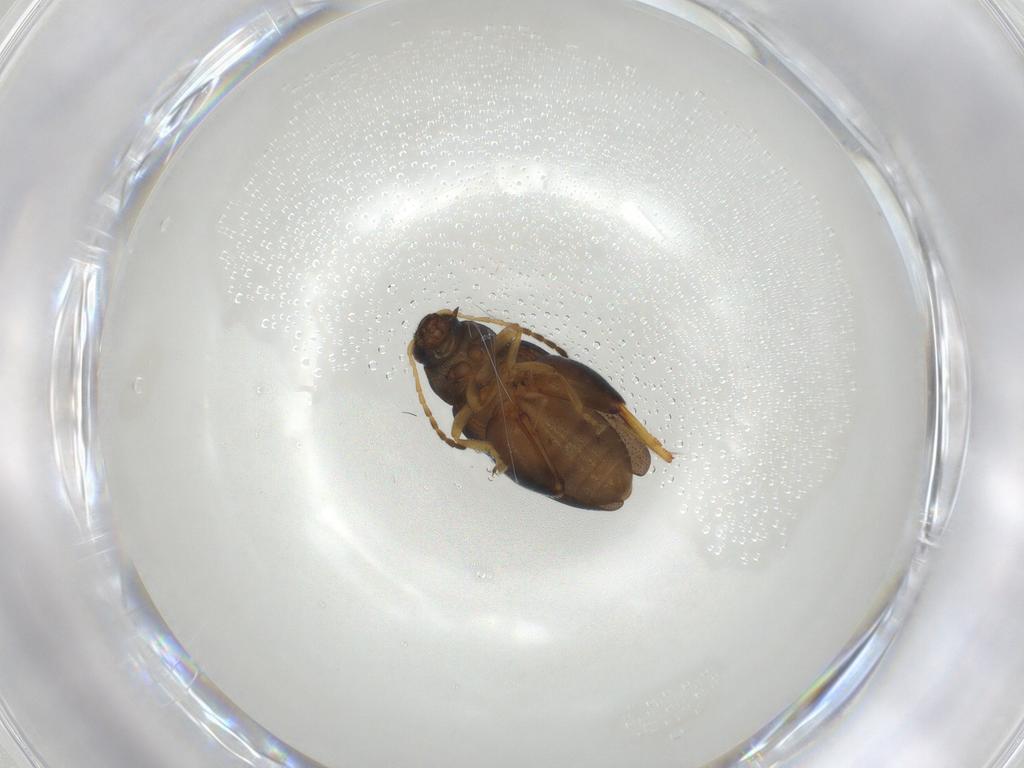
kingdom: Animalia
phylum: Arthropoda
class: Insecta
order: Coleoptera
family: Chrysomelidae
